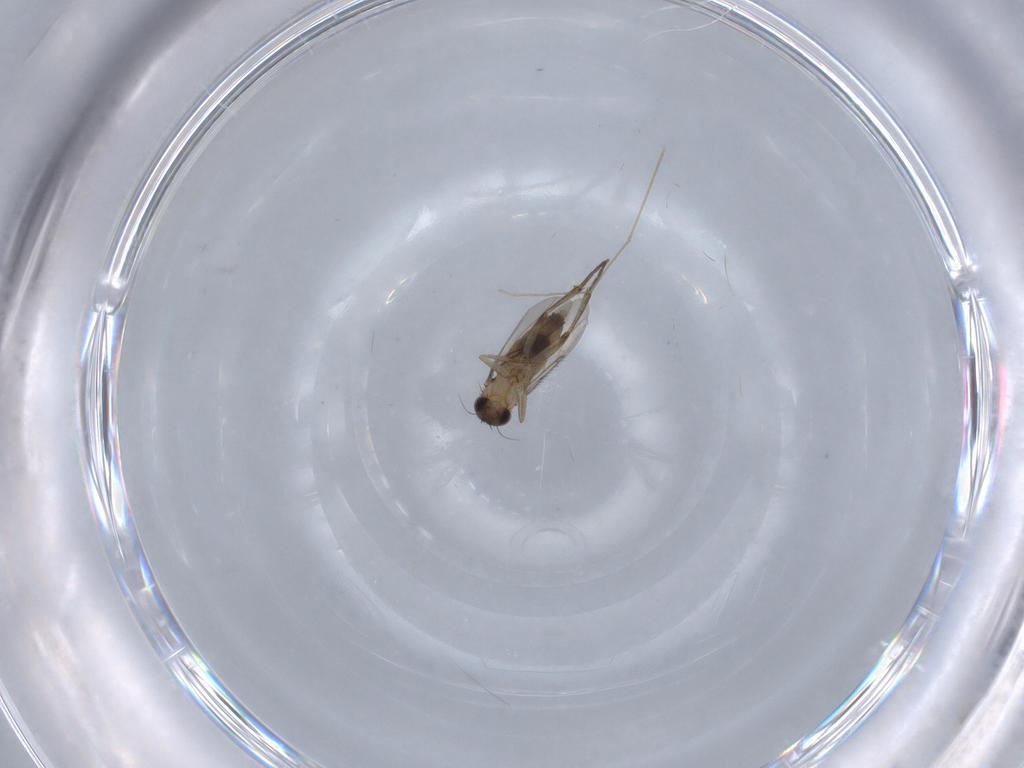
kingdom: Animalia
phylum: Arthropoda
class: Insecta
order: Diptera
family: Phoridae
